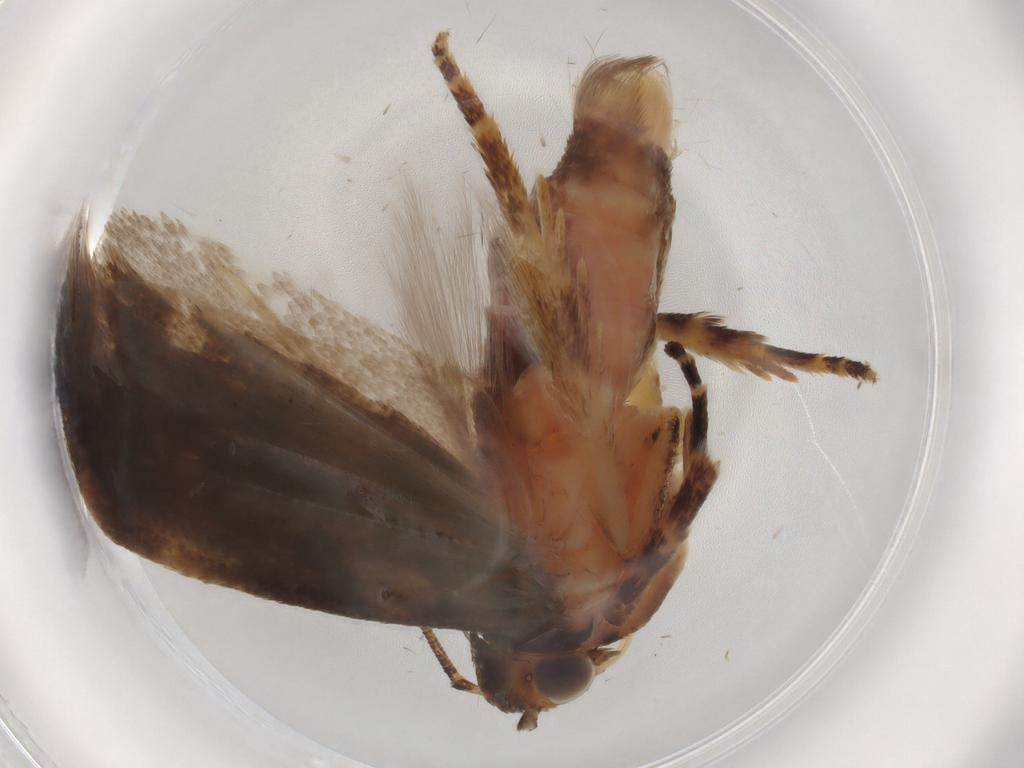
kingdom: Animalia
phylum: Arthropoda
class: Insecta
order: Lepidoptera
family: Gelechiidae
